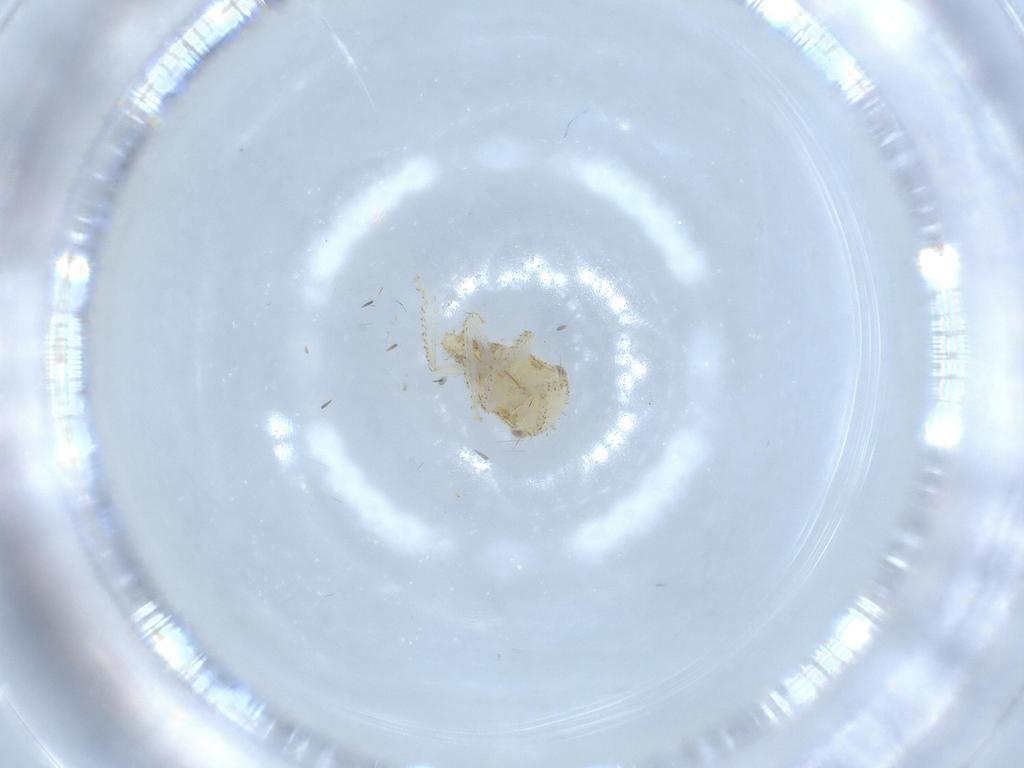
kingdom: Animalia
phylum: Arthropoda
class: Insecta
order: Hemiptera
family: Cicadellidae
